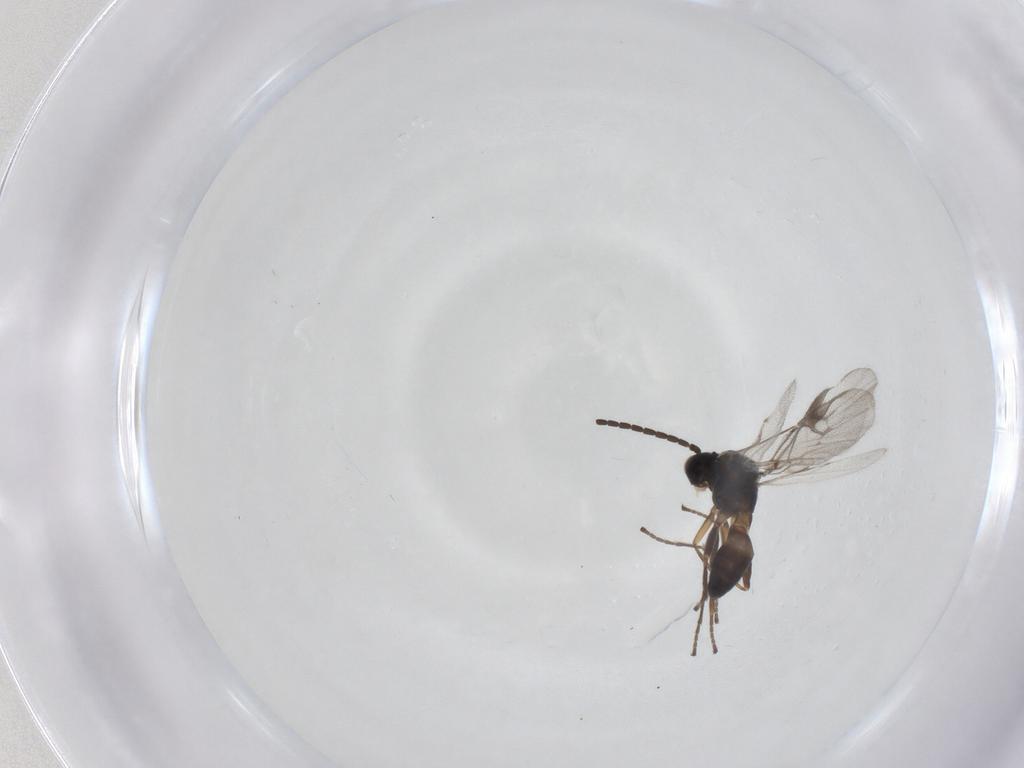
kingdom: Animalia
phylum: Arthropoda
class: Insecta
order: Hymenoptera
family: Braconidae
